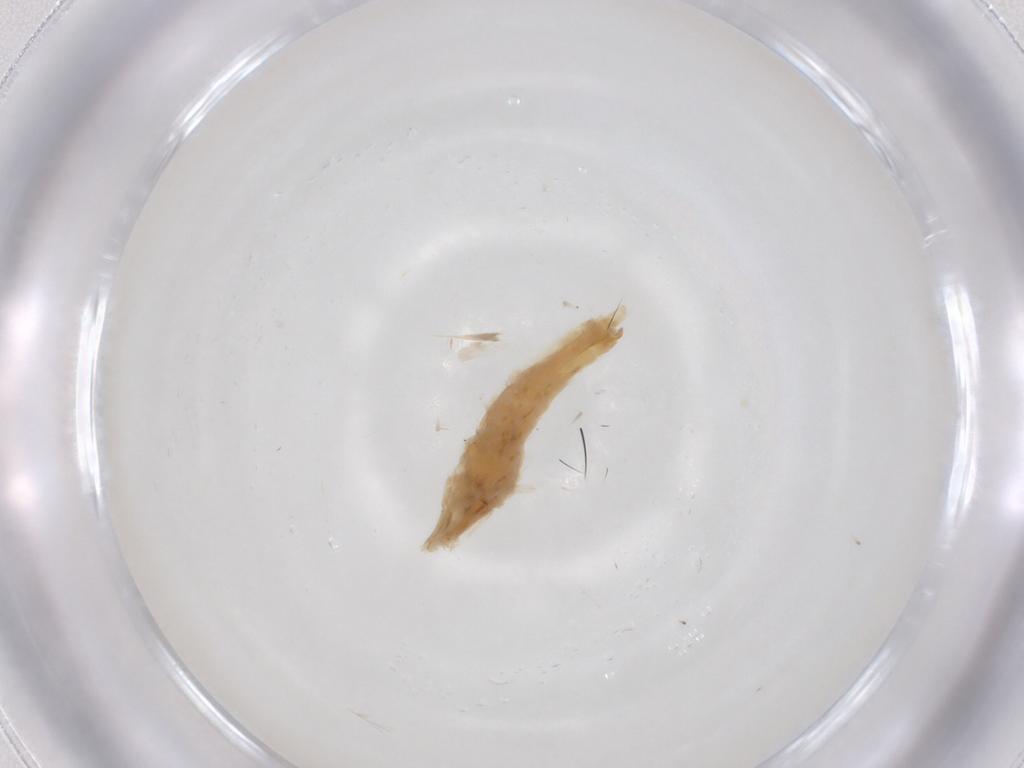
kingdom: Animalia
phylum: Arthropoda
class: Insecta
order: Lepidoptera
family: Gelechiidae
